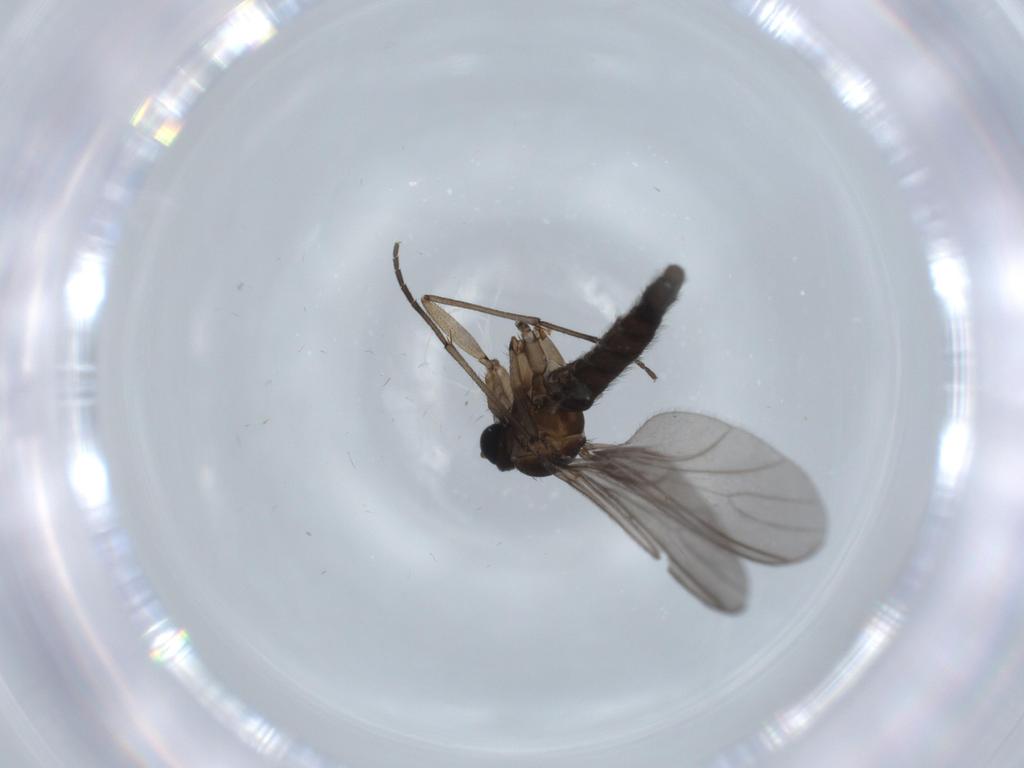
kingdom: Animalia
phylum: Arthropoda
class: Insecta
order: Diptera
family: Sciaridae
